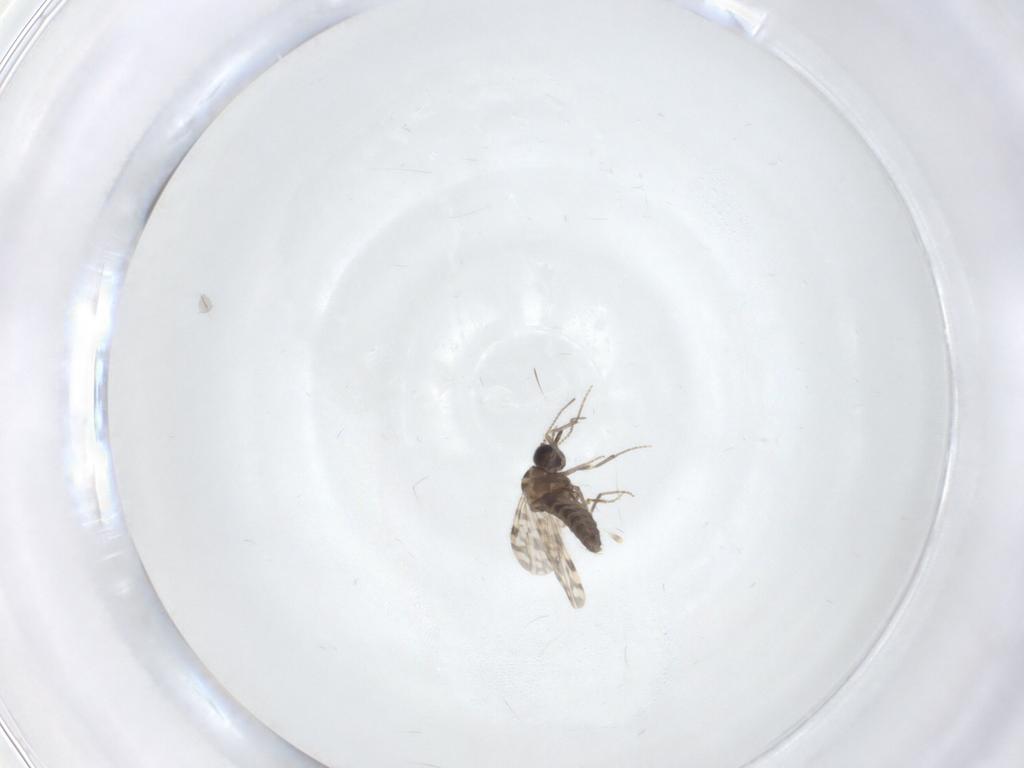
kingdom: Animalia
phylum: Arthropoda
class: Insecta
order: Diptera
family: Ceratopogonidae
